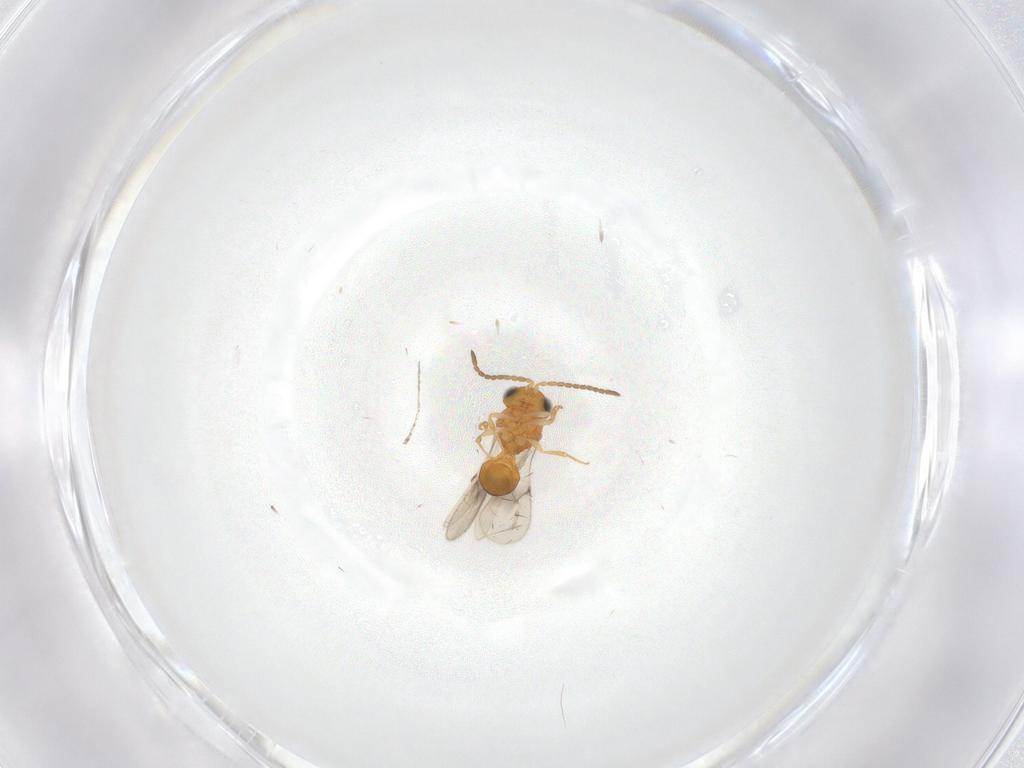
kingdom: Animalia
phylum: Arthropoda
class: Insecta
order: Hymenoptera
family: Scelionidae
